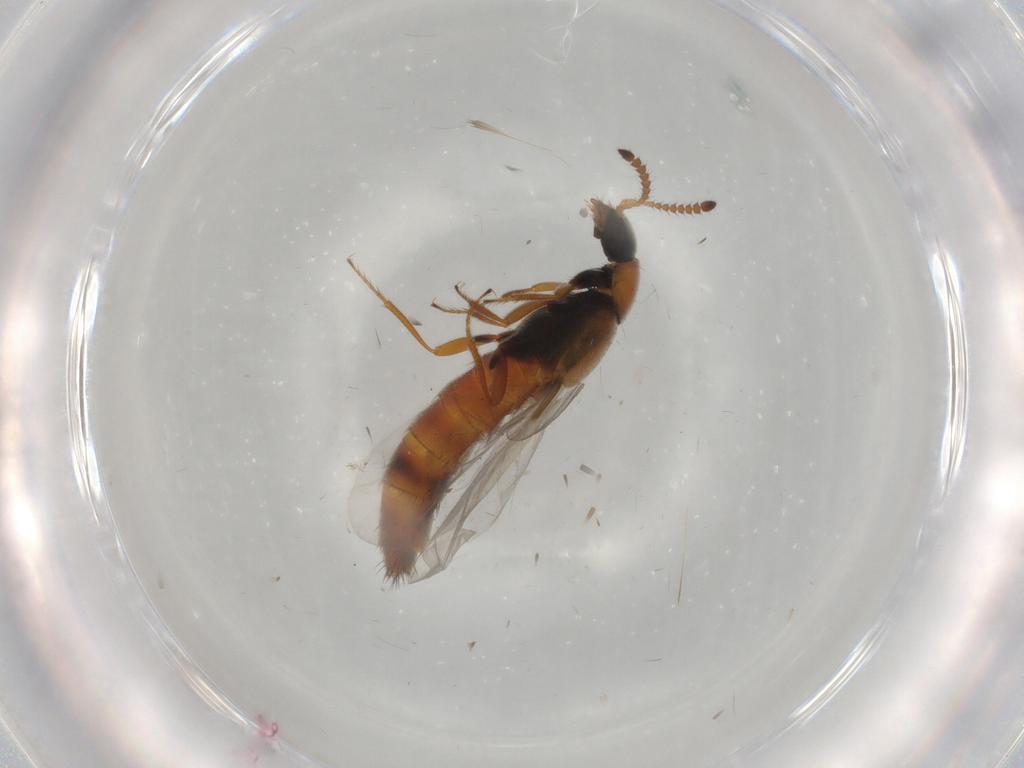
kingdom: Animalia
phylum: Arthropoda
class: Insecta
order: Coleoptera
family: Staphylinidae
